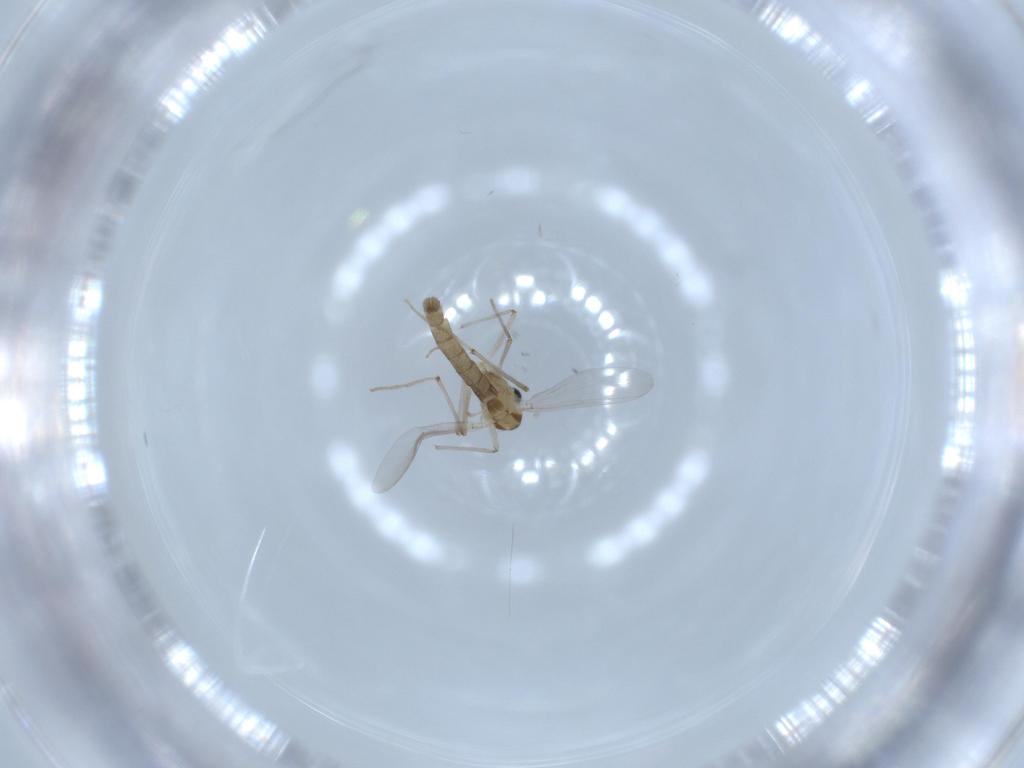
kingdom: Animalia
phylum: Arthropoda
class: Insecta
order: Diptera
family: Chironomidae
